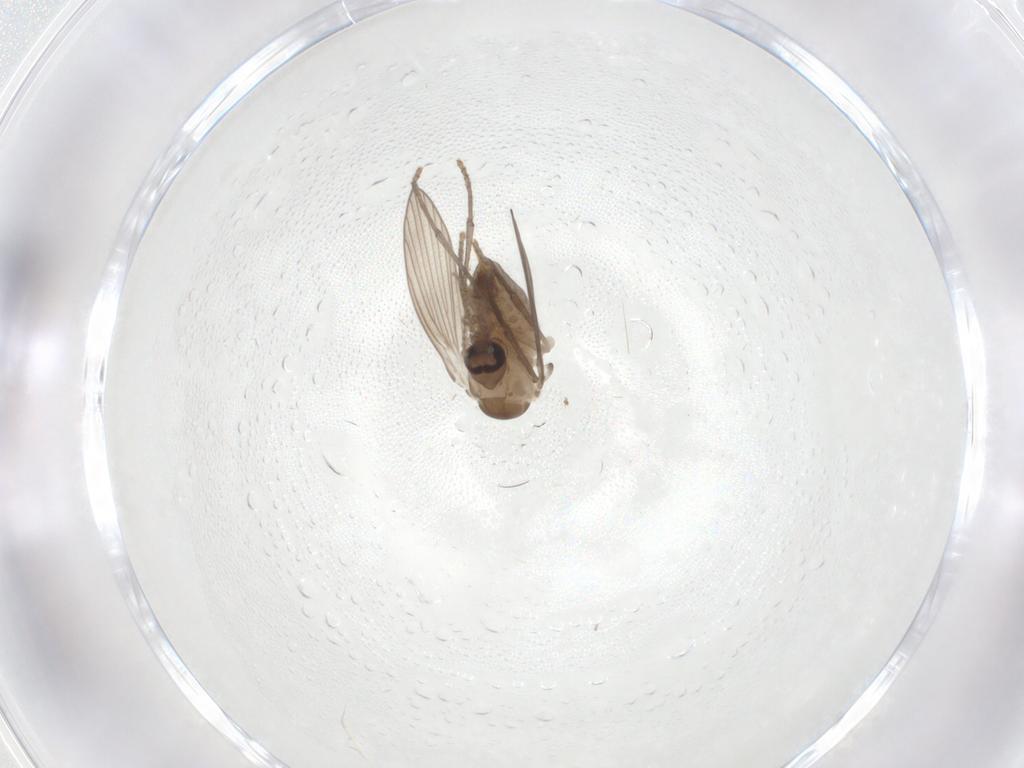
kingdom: Animalia
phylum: Arthropoda
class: Insecta
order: Diptera
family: Psychodidae
